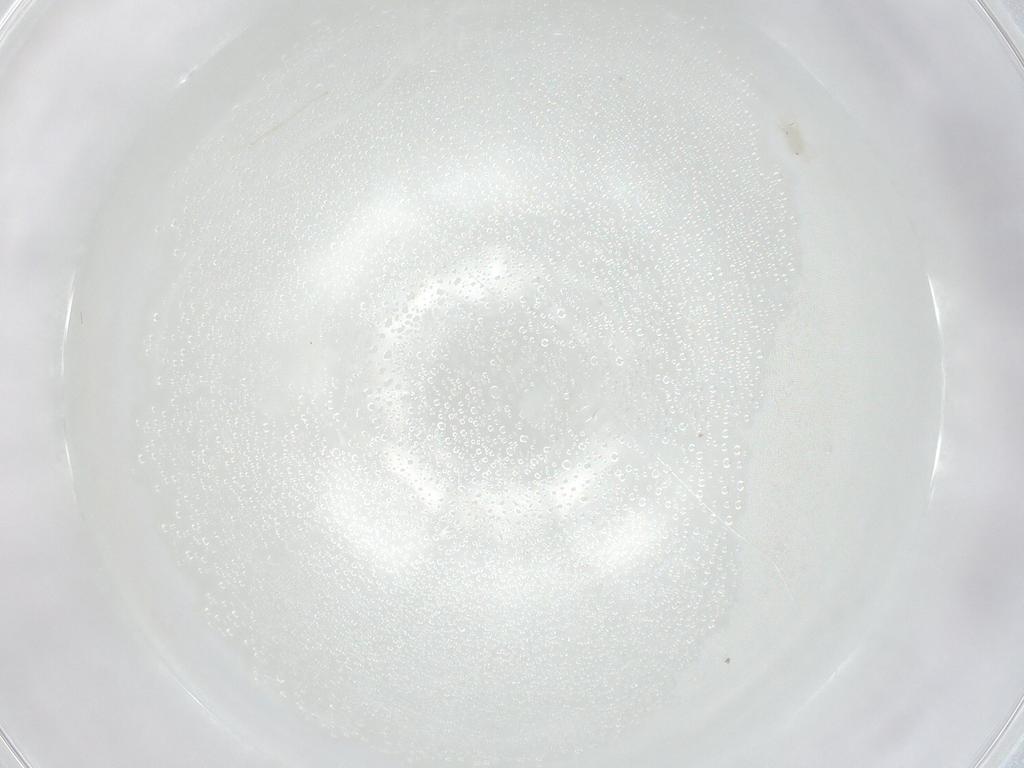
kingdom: Animalia
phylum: Arthropoda
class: Arachnida
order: Trombidiformes
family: Anystidae
